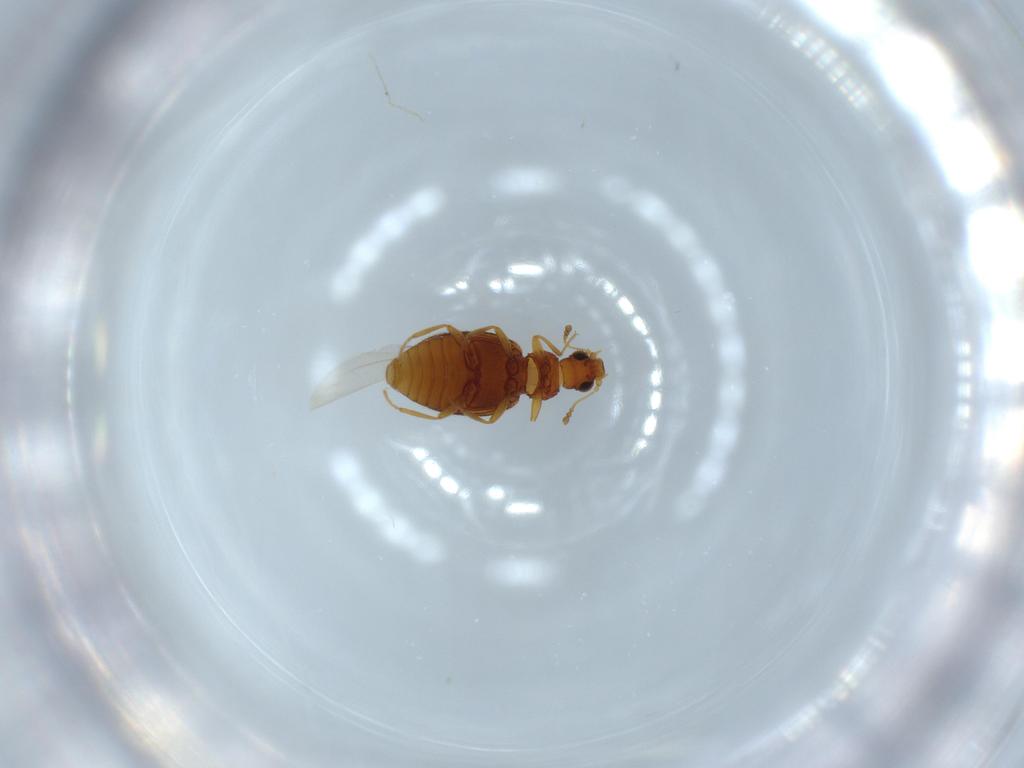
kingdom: Animalia
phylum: Arthropoda
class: Insecta
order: Coleoptera
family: Latridiidae
